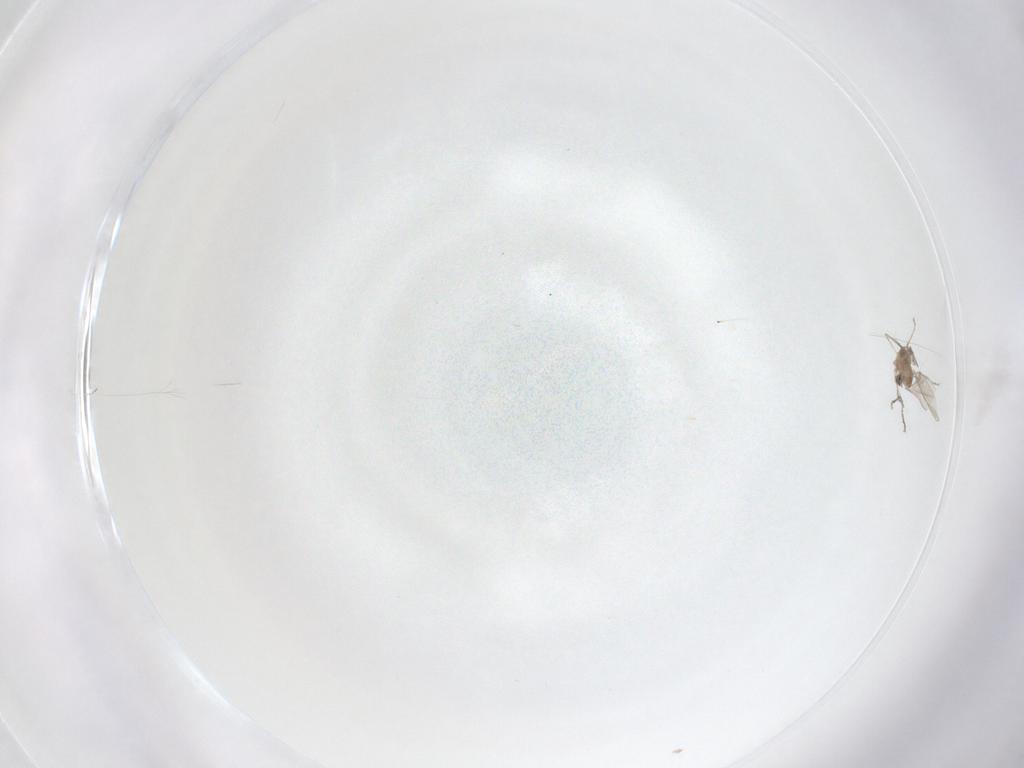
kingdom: Animalia
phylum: Arthropoda
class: Insecta
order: Diptera
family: Cecidomyiidae
